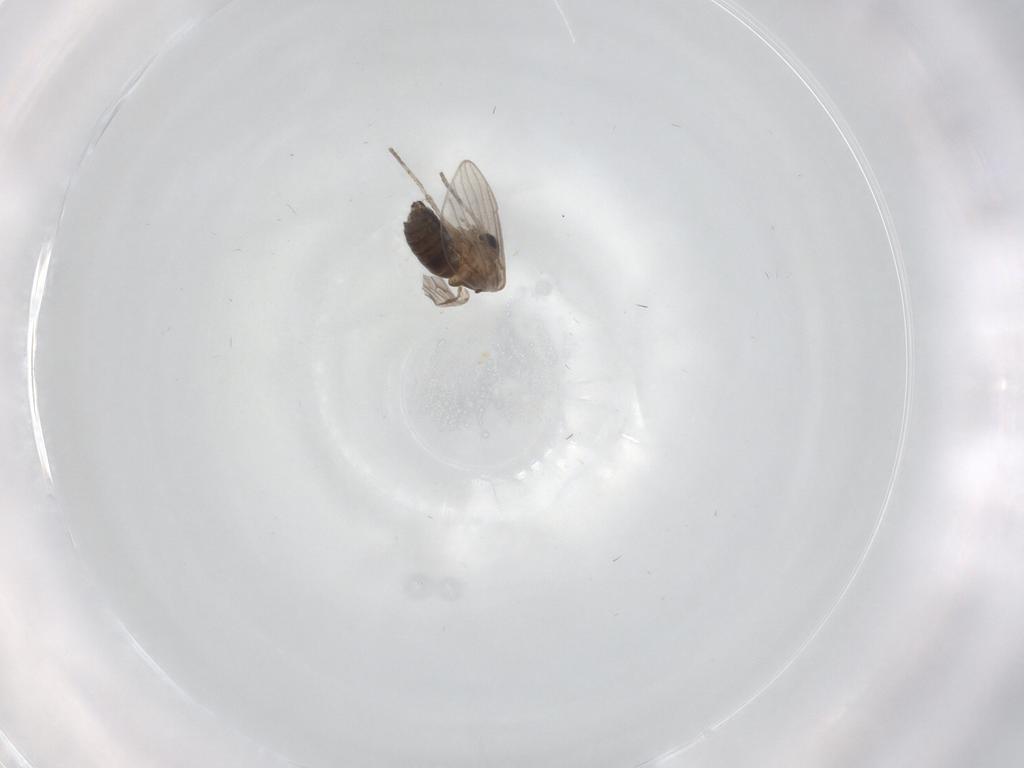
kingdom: Animalia
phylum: Arthropoda
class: Insecta
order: Diptera
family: Psychodidae
